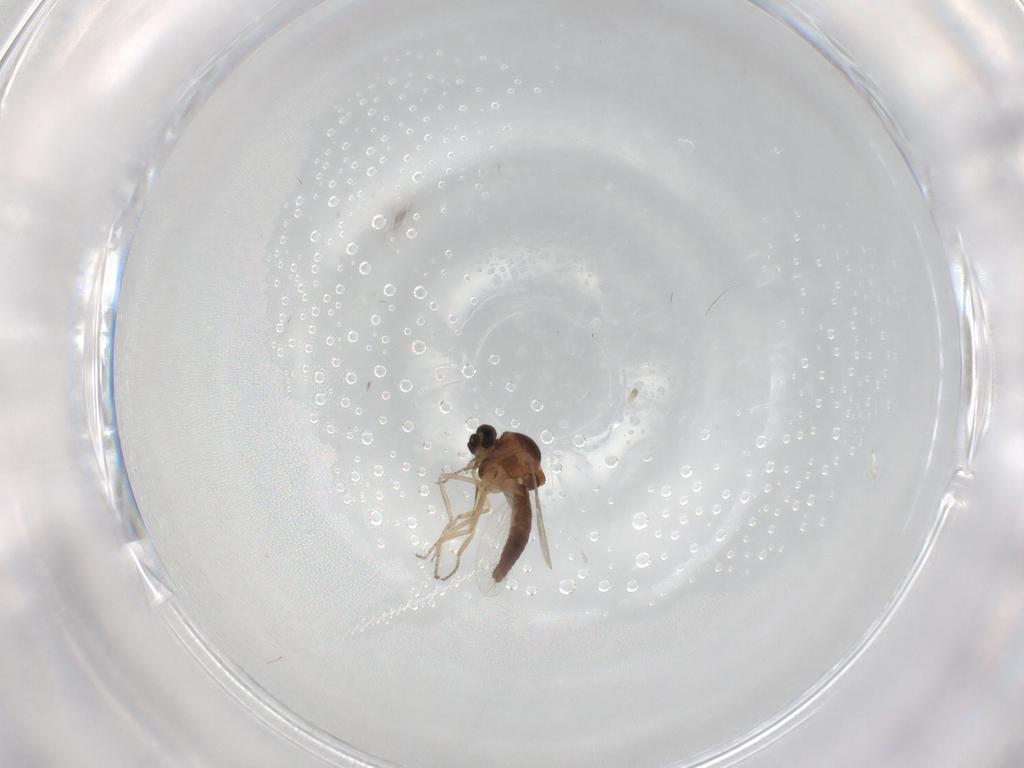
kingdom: Animalia
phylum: Arthropoda
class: Insecta
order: Diptera
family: Ceratopogonidae
